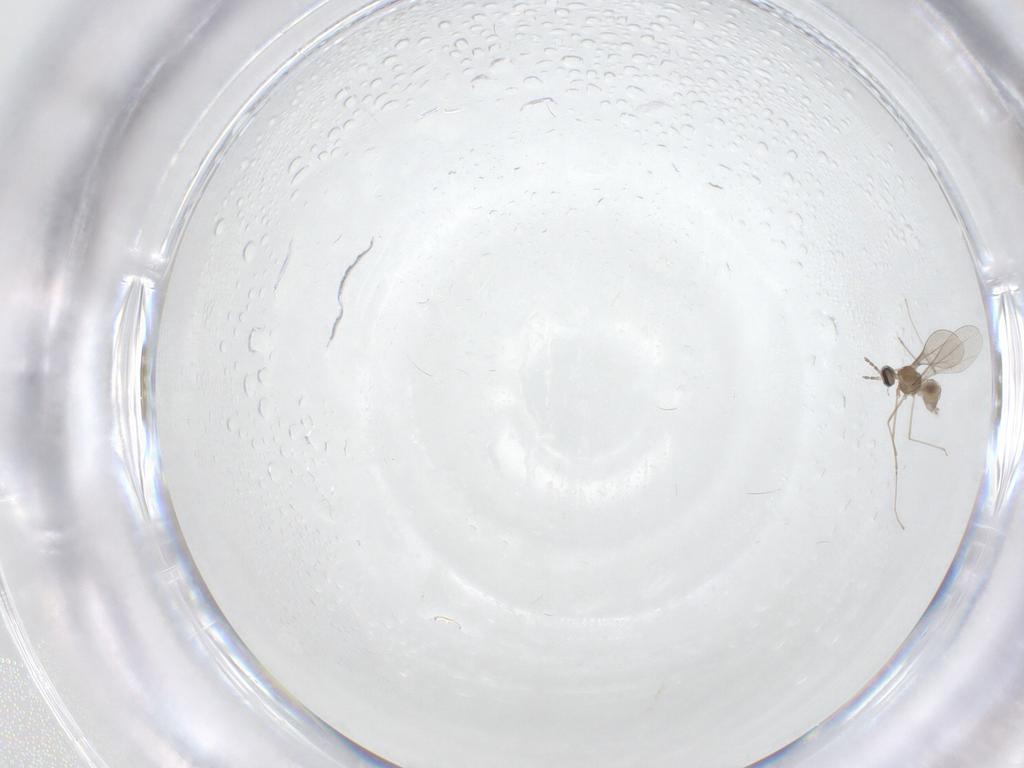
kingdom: Animalia
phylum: Arthropoda
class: Insecta
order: Diptera
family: Cecidomyiidae
